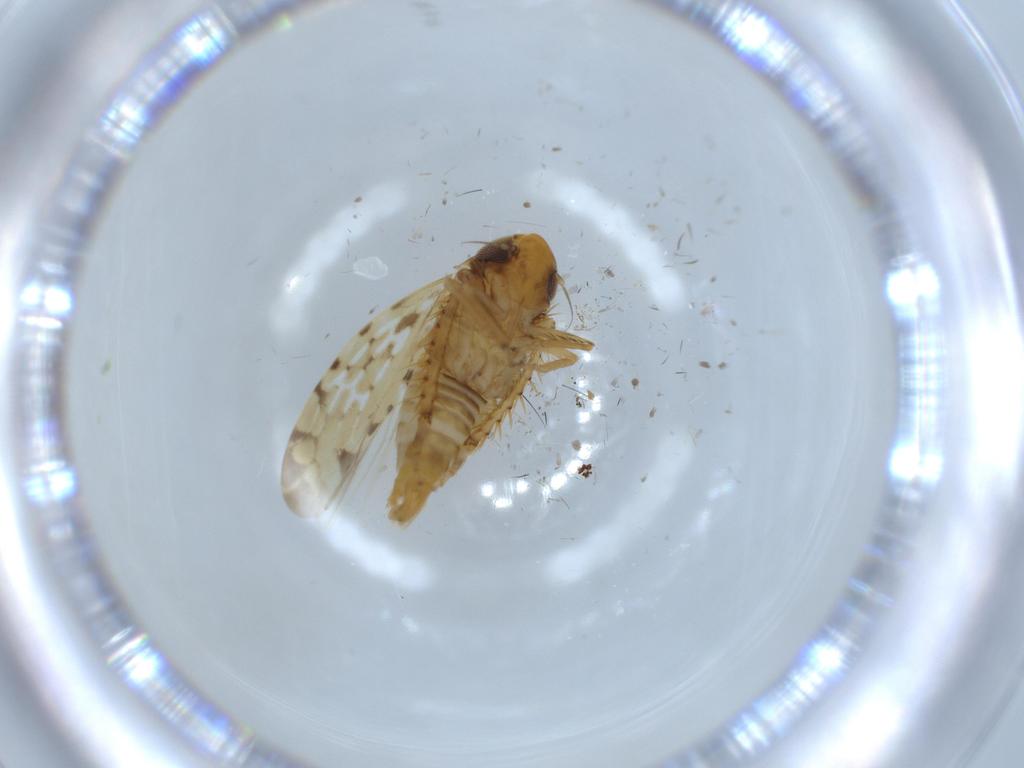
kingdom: Animalia
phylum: Arthropoda
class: Insecta
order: Hemiptera
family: Cicadellidae
